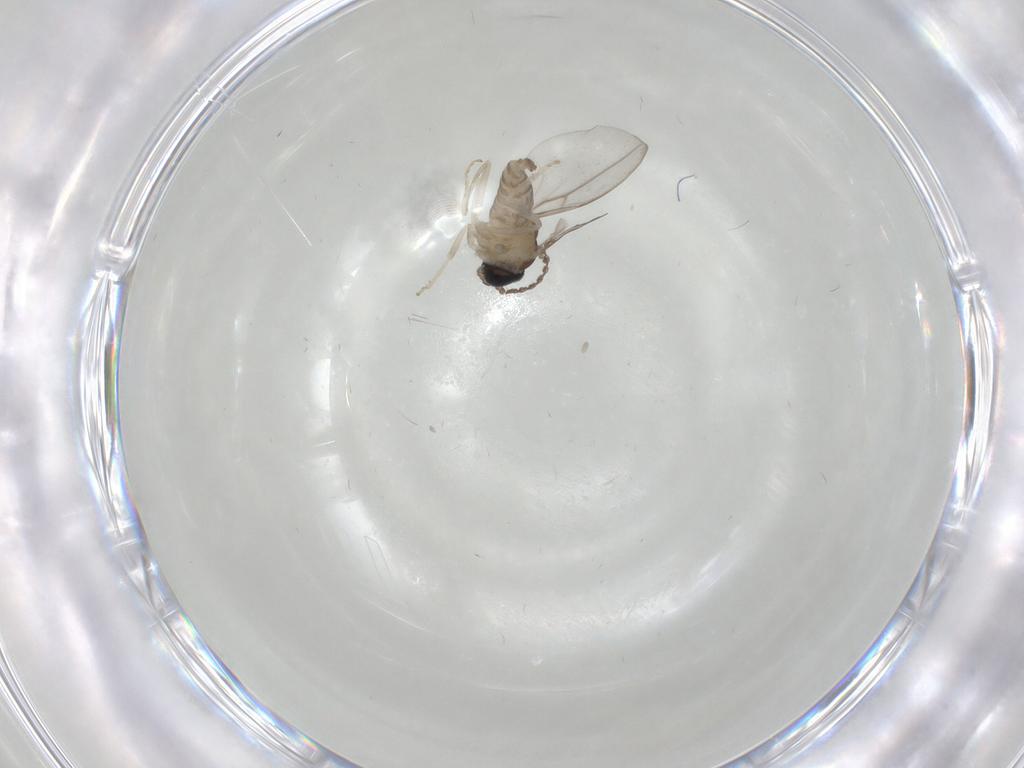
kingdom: Animalia
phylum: Arthropoda
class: Insecta
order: Diptera
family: Cecidomyiidae
